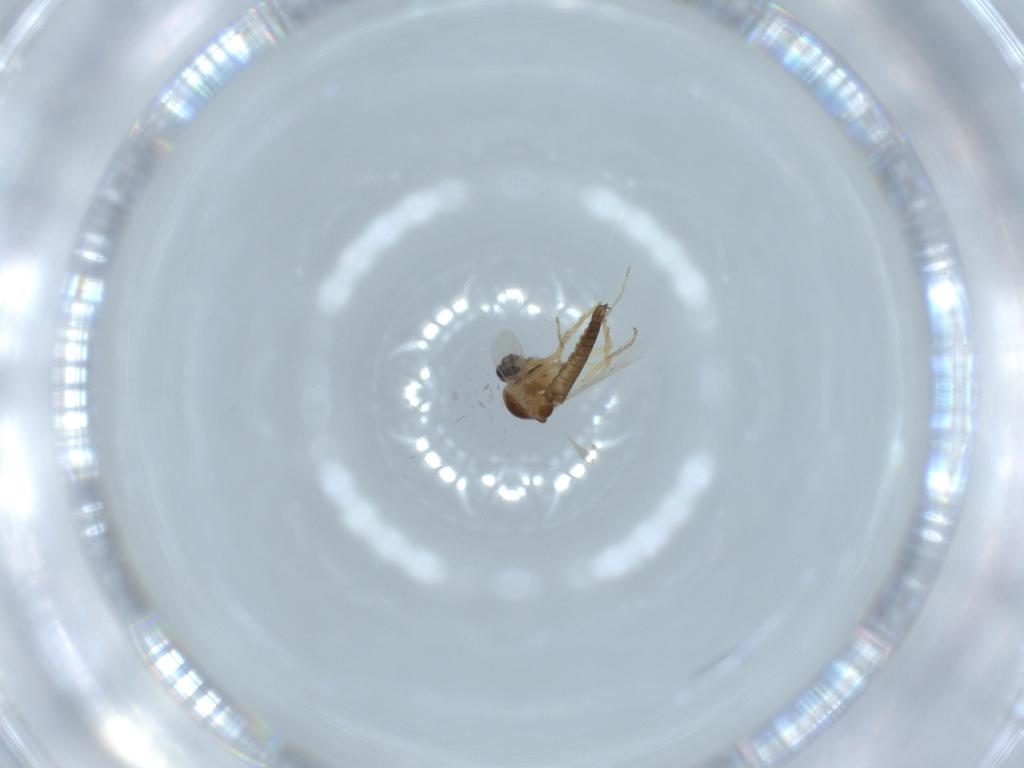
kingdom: Animalia
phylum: Arthropoda
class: Insecta
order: Diptera
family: Ceratopogonidae
